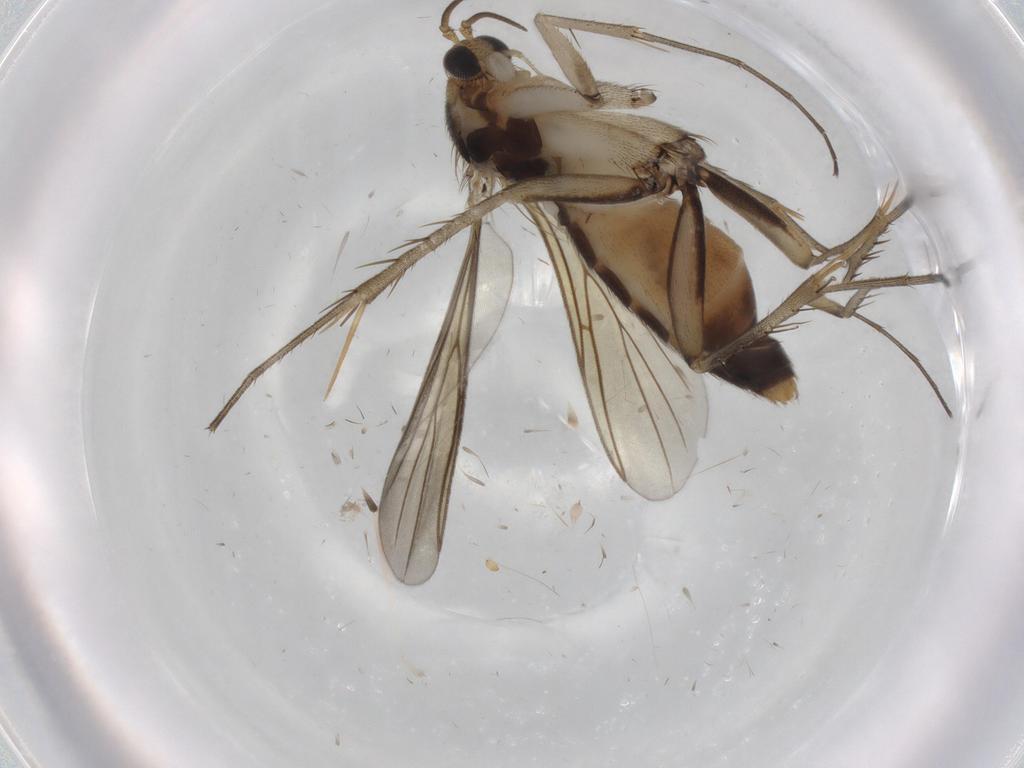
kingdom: Animalia
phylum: Arthropoda
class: Insecta
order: Diptera
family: Mycetophilidae
